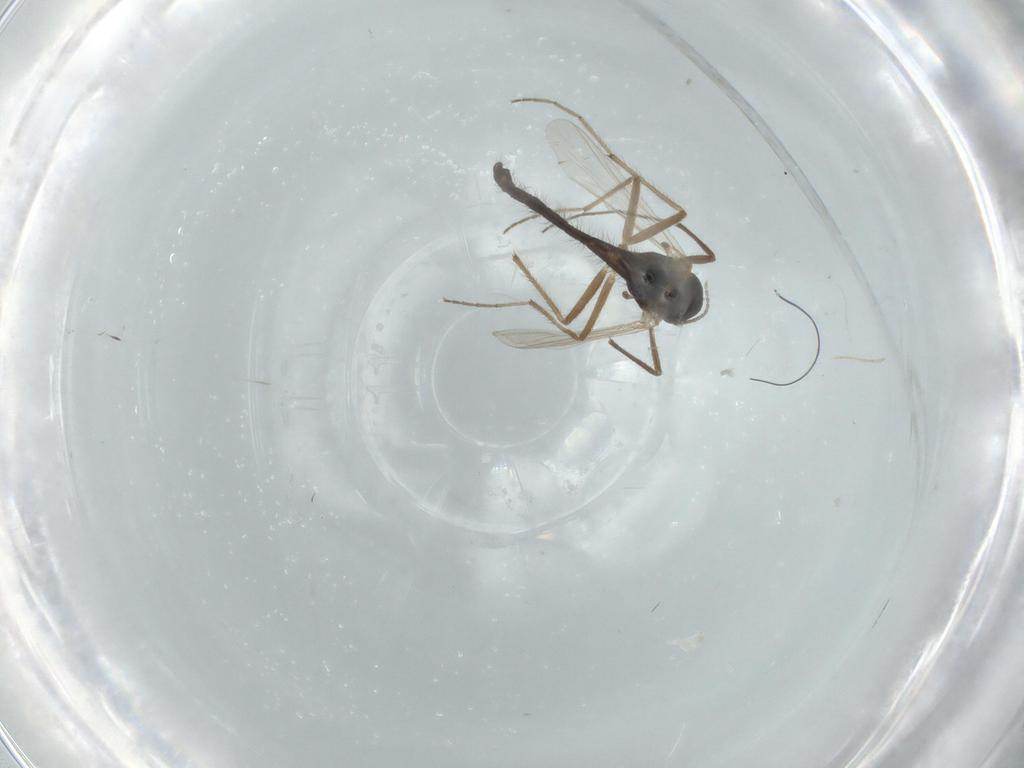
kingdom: Animalia
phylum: Arthropoda
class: Insecta
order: Diptera
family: Chironomidae
